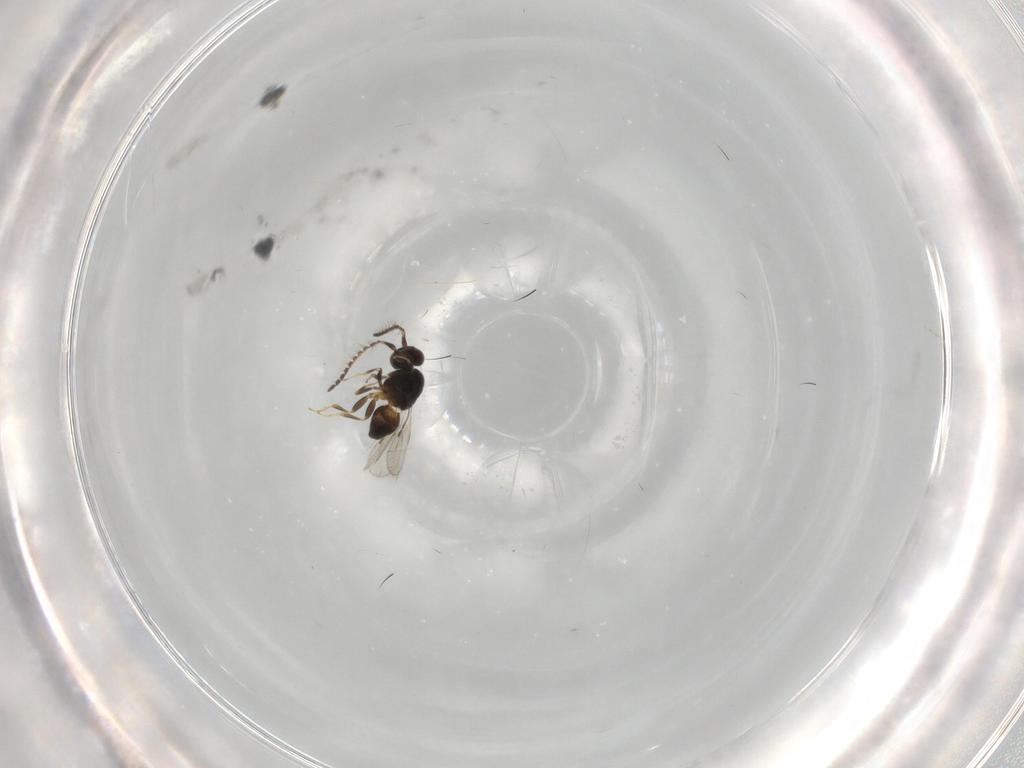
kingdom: Animalia
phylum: Arthropoda
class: Insecta
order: Hymenoptera
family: Vespidae
